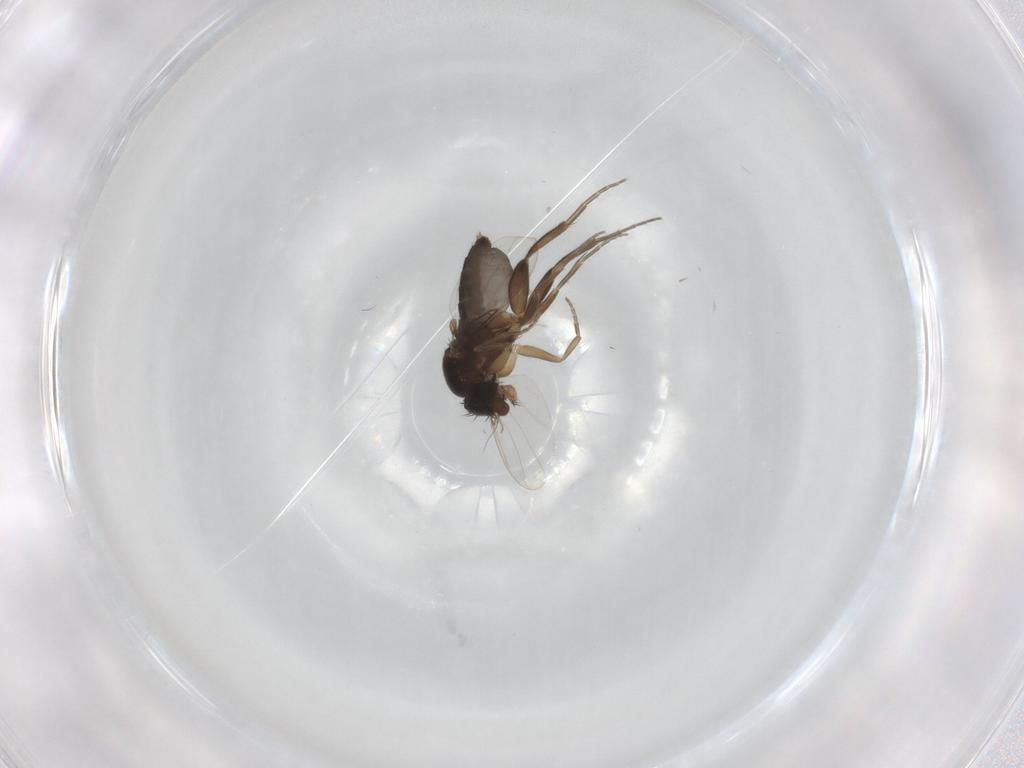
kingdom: Animalia
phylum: Arthropoda
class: Insecta
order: Diptera
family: Phoridae
